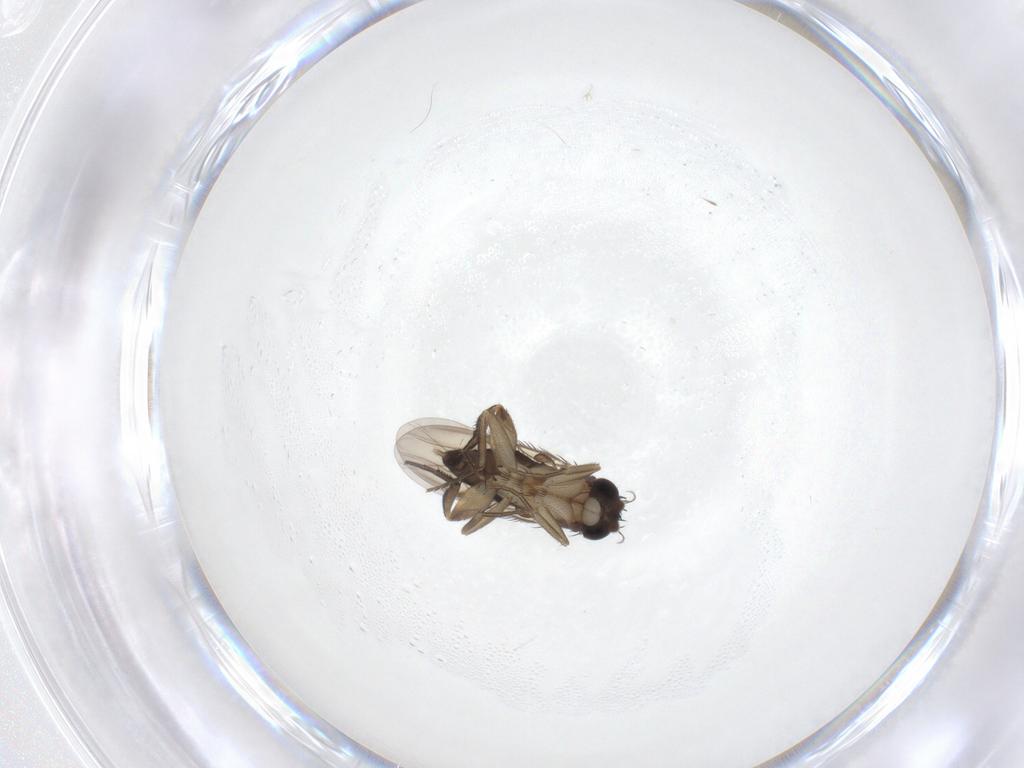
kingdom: Animalia
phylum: Arthropoda
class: Insecta
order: Diptera
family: Phoridae
